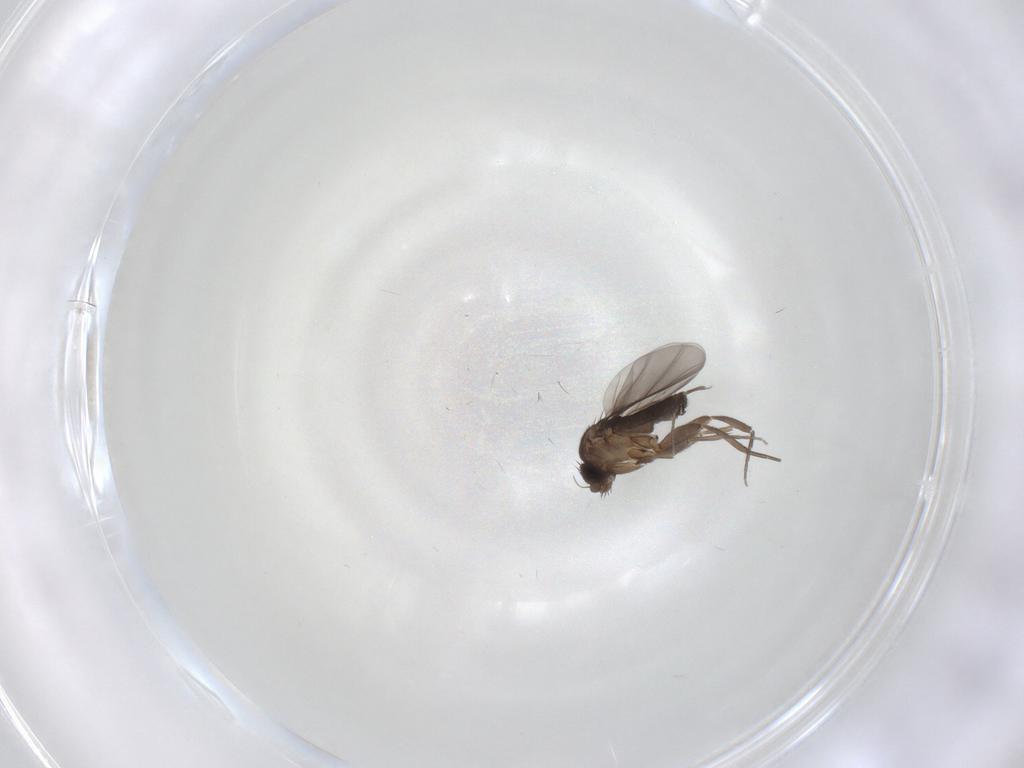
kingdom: Animalia
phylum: Arthropoda
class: Insecta
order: Diptera
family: Phoridae
